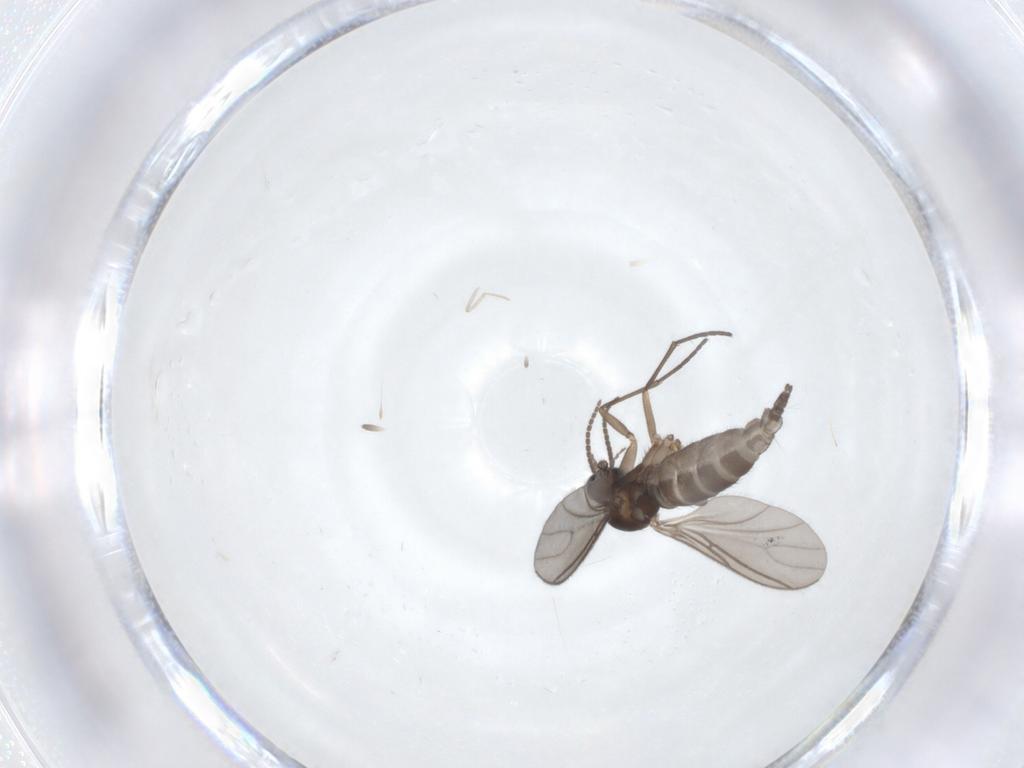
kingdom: Animalia
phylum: Arthropoda
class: Insecta
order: Diptera
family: Sciaridae
